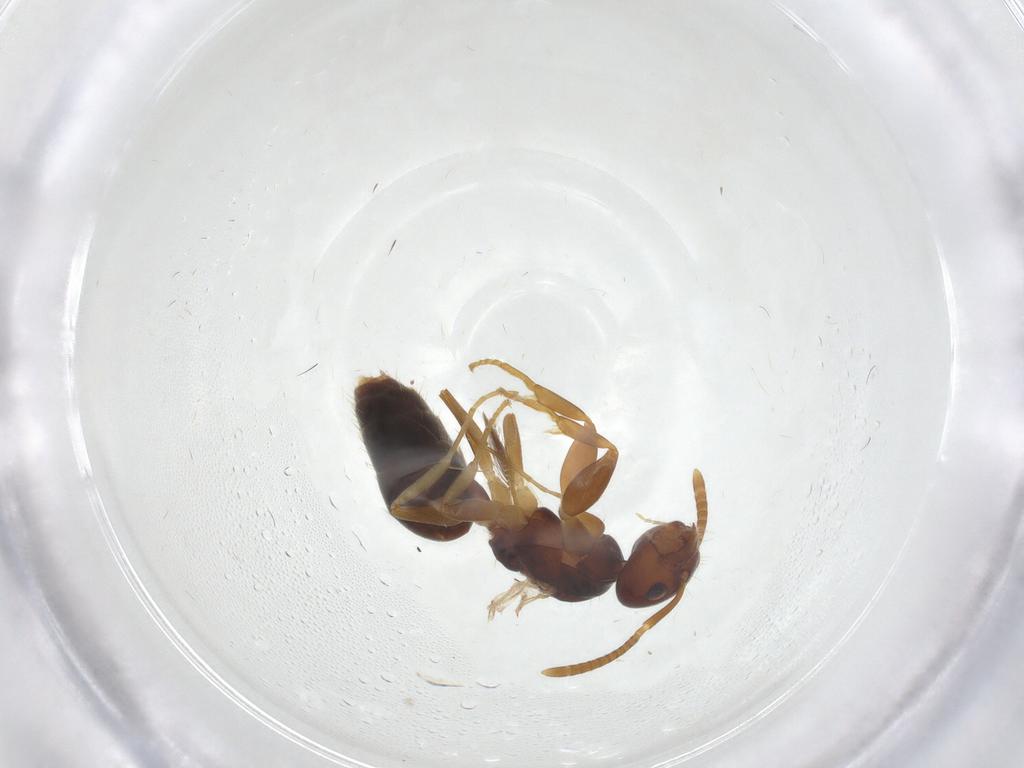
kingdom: Animalia
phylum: Arthropoda
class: Insecta
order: Hymenoptera
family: Formicidae
